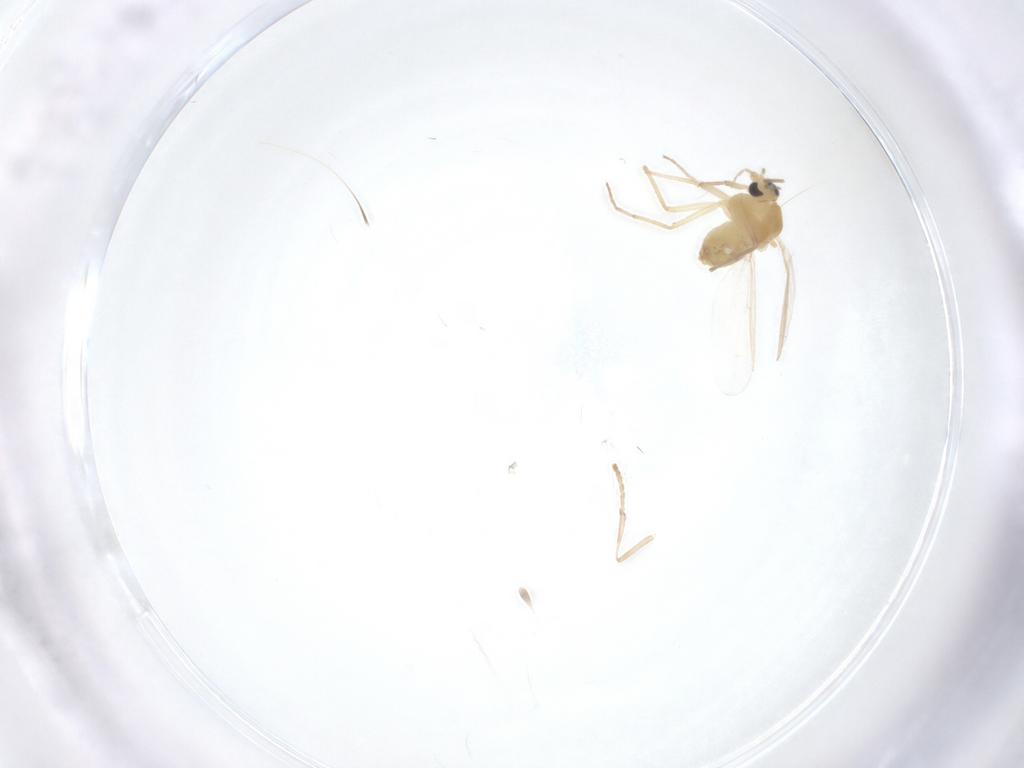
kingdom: Animalia
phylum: Arthropoda
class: Insecta
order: Diptera
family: Chironomidae
